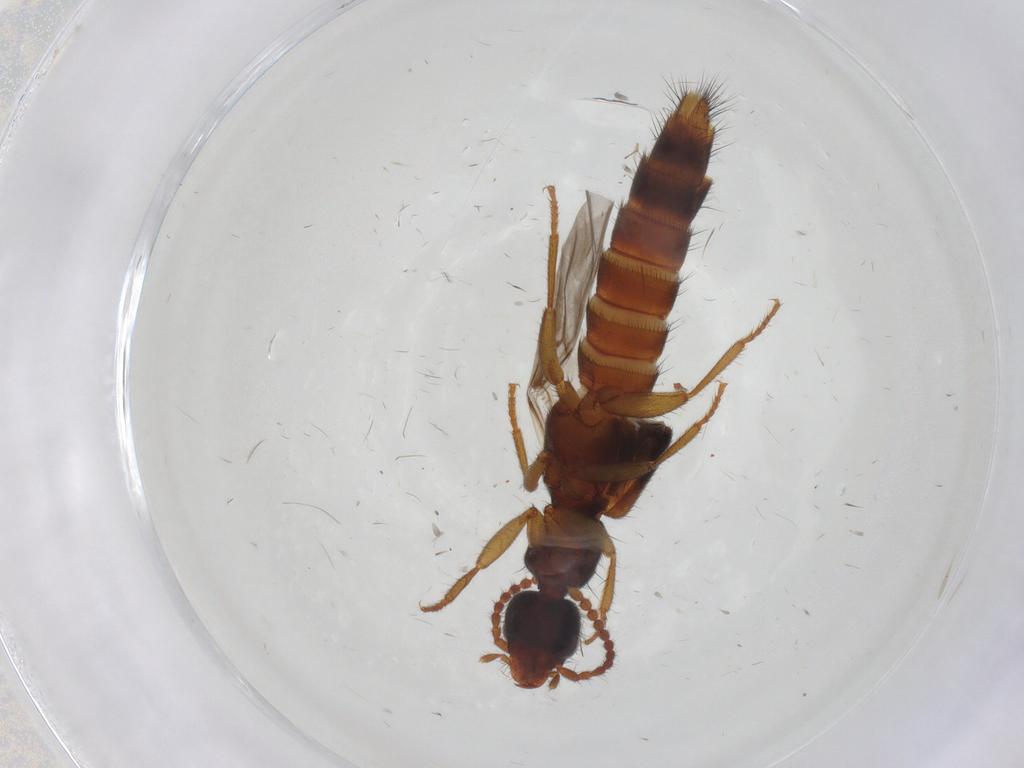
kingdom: Animalia
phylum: Arthropoda
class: Insecta
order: Coleoptera
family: Staphylinidae
